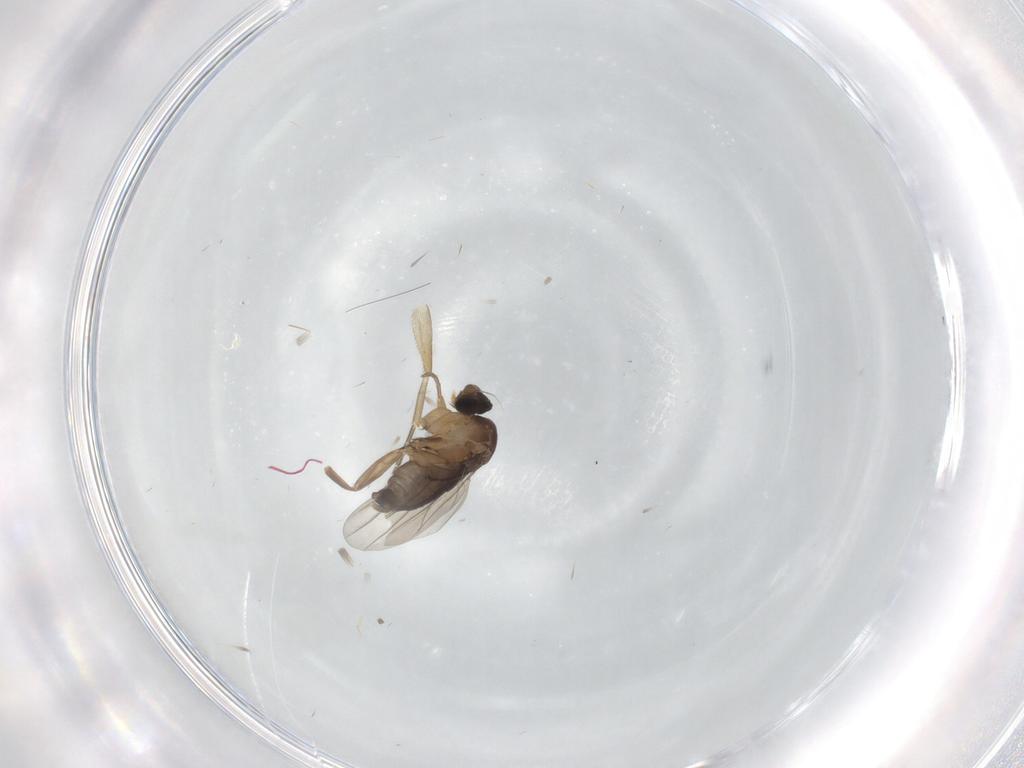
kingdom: Animalia
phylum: Arthropoda
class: Insecta
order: Diptera
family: Phoridae
